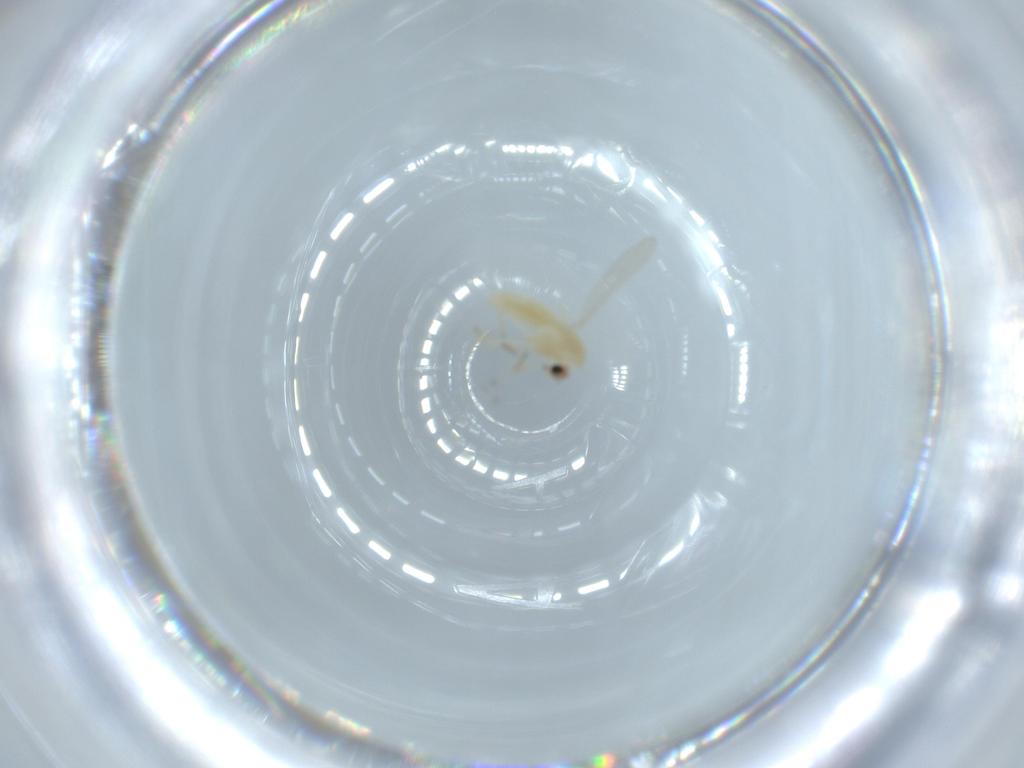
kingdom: Animalia
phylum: Arthropoda
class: Insecta
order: Diptera
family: Chironomidae
